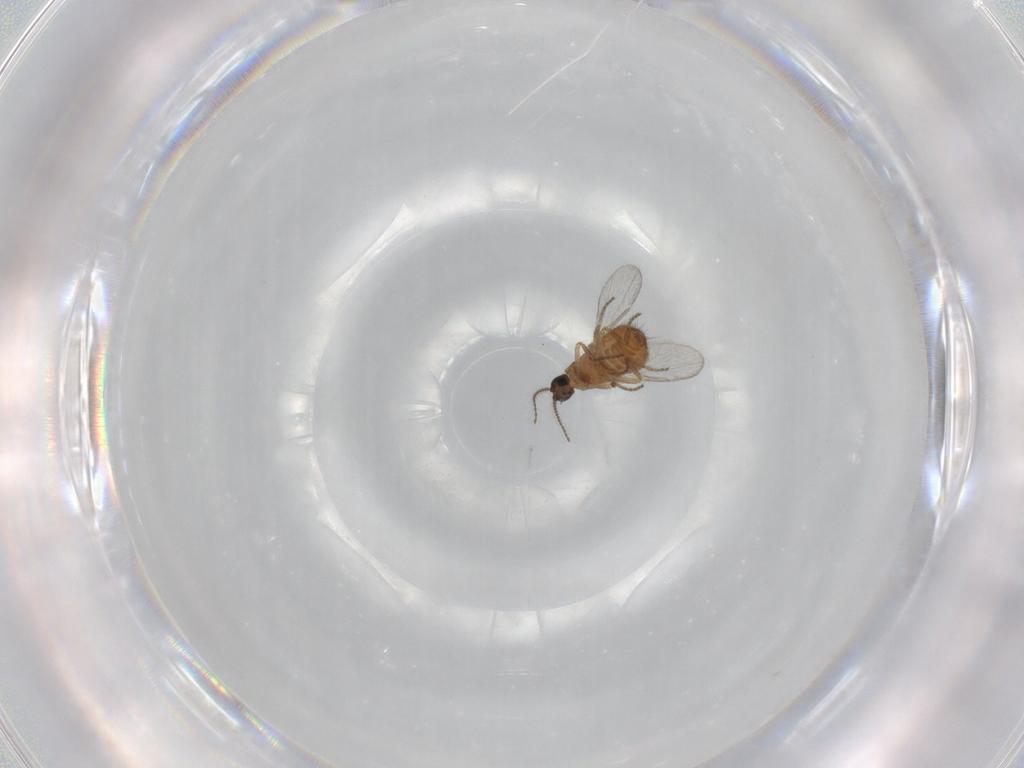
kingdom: Animalia
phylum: Arthropoda
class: Insecta
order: Diptera
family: Ceratopogonidae
